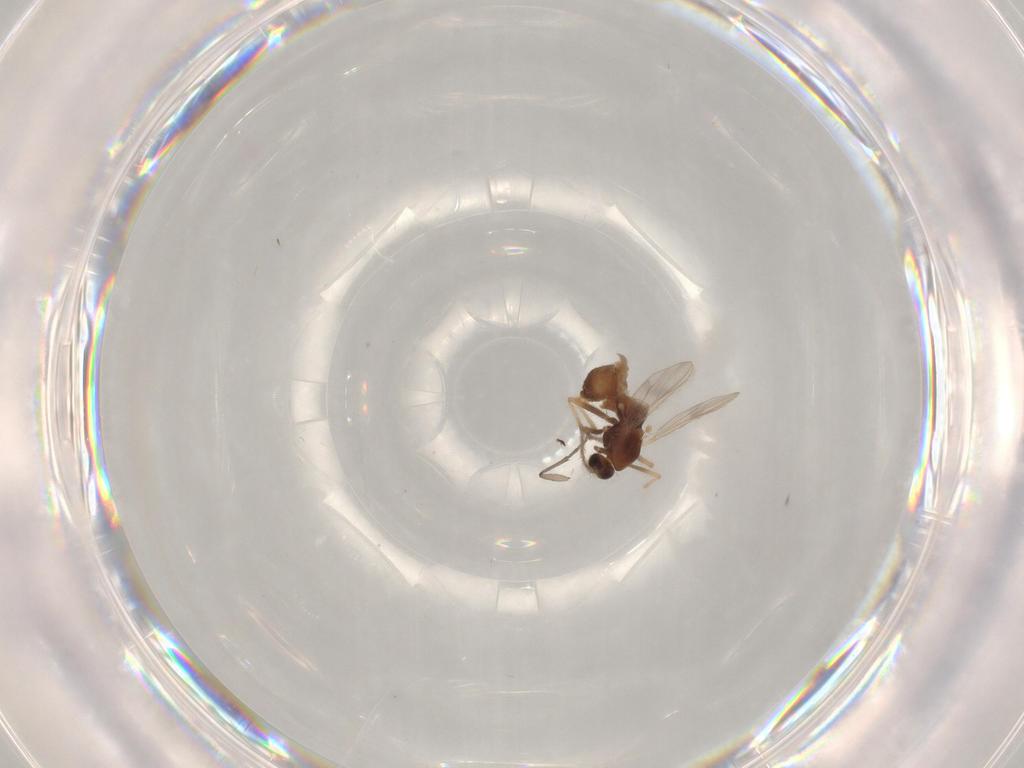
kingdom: Animalia
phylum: Arthropoda
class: Insecta
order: Diptera
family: Chironomidae
